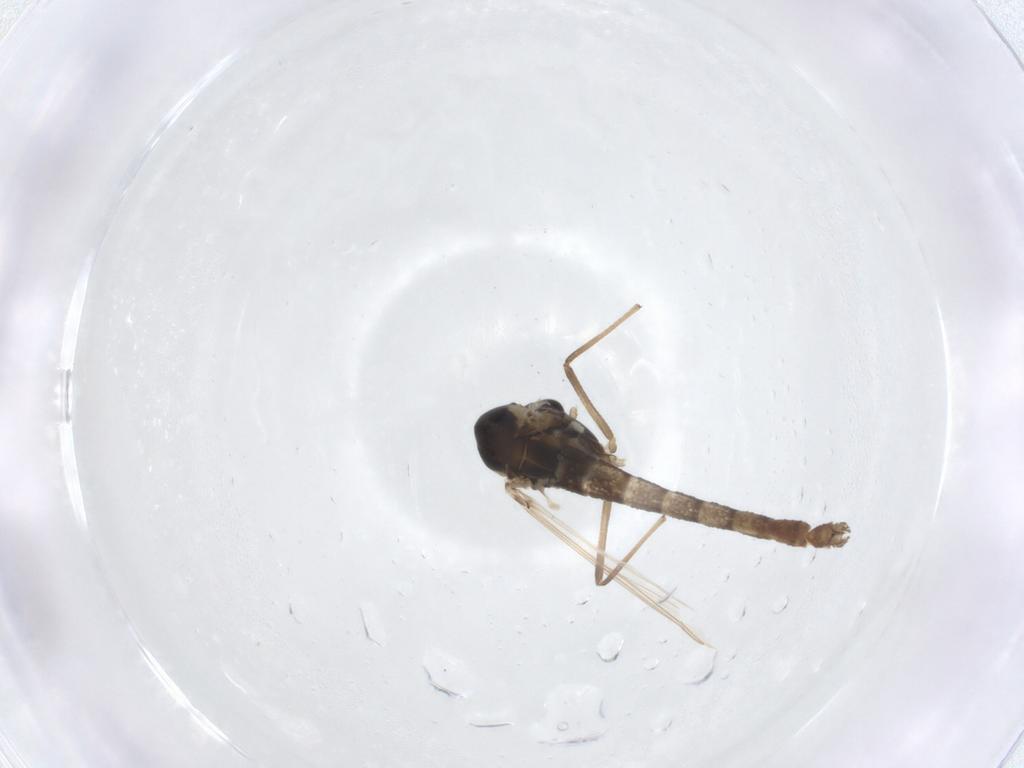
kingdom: Animalia
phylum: Arthropoda
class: Insecta
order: Diptera
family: Chironomidae
